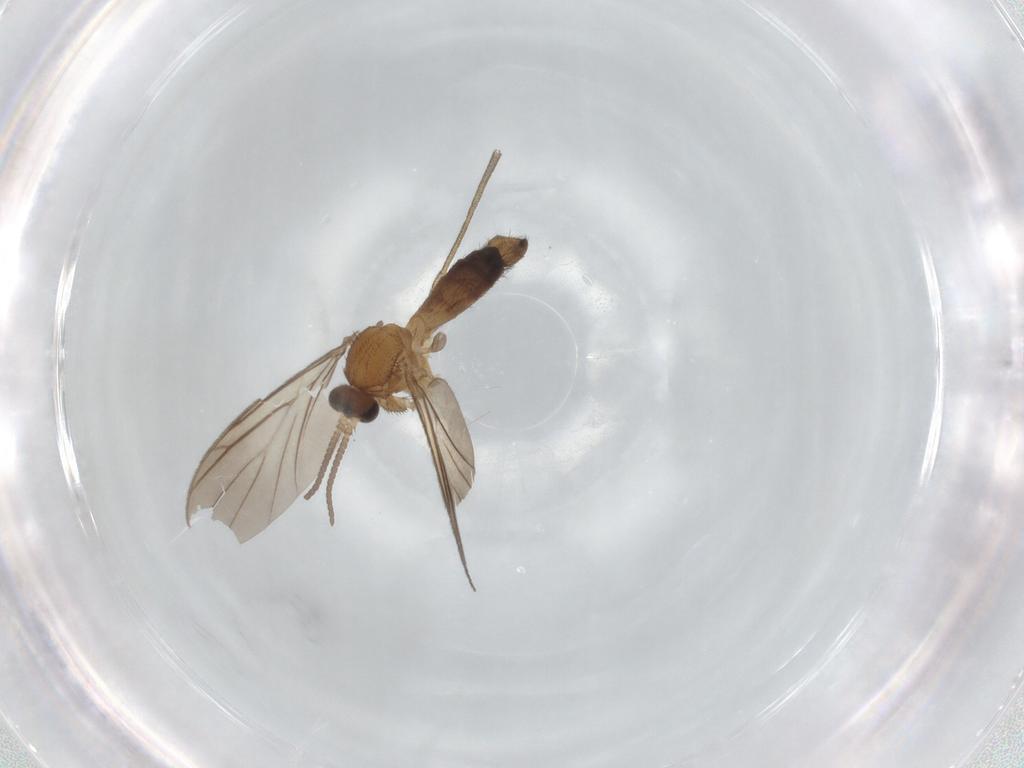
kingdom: Animalia
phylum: Arthropoda
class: Insecta
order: Diptera
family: Keroplatidae
